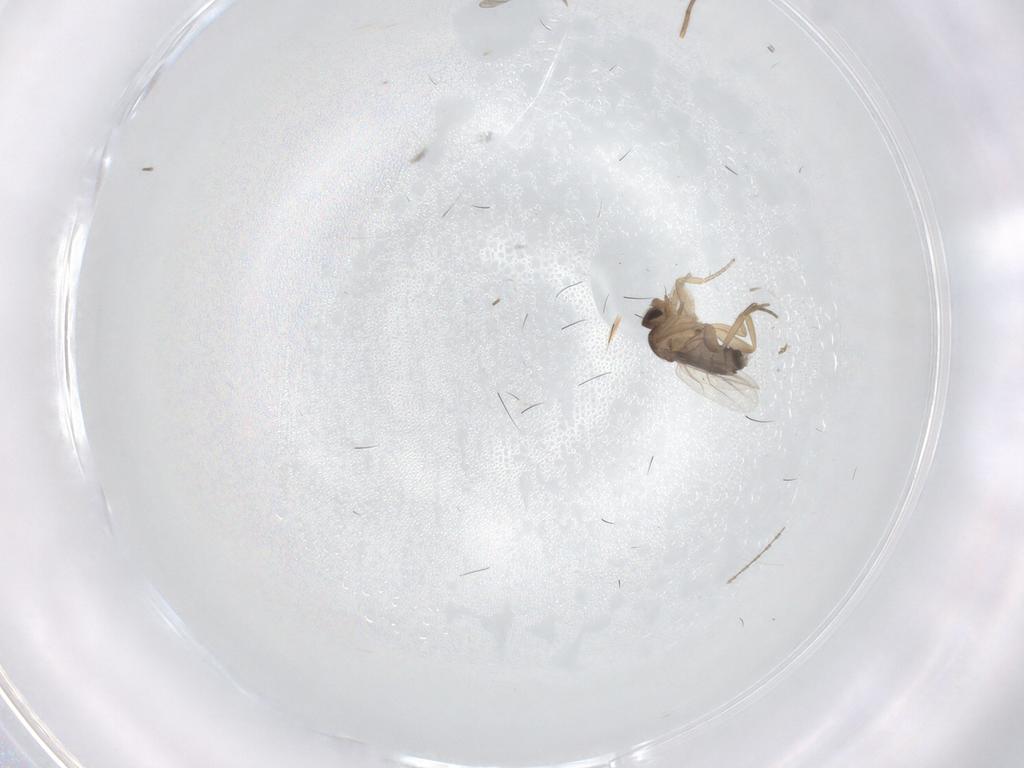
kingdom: Animalia
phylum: Arthropoda
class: Insecta
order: Diptera
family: Phoridae
